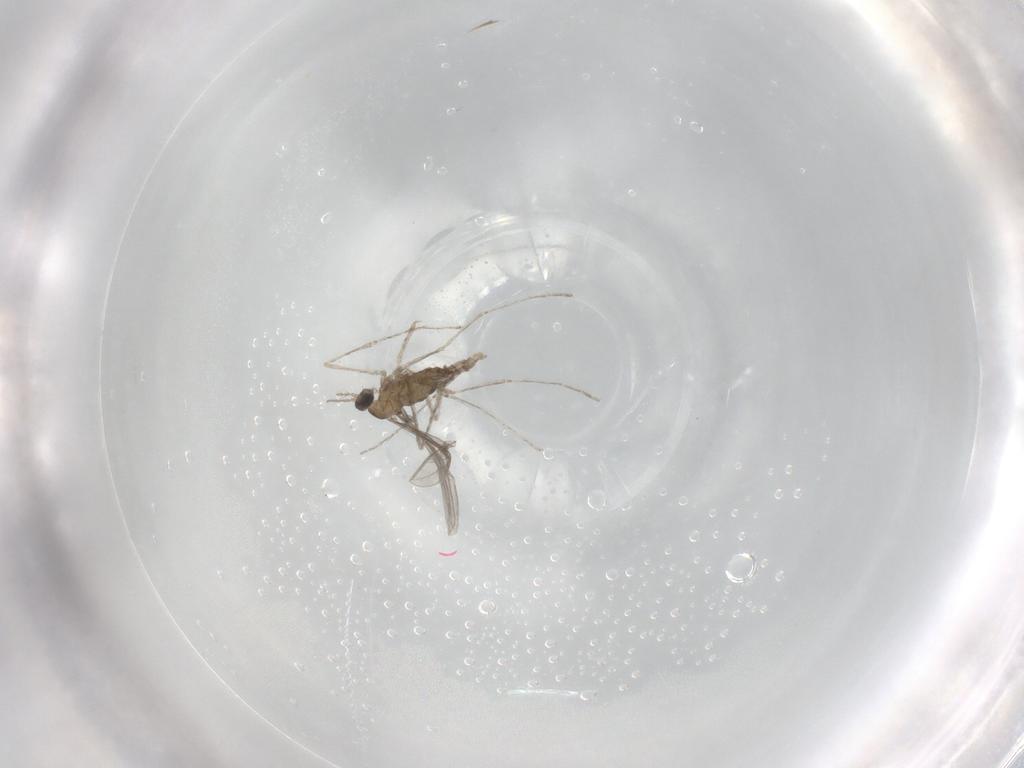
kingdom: Animalia
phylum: Arthropoda
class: Insecta
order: Diptera
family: Cecidomyiidae
